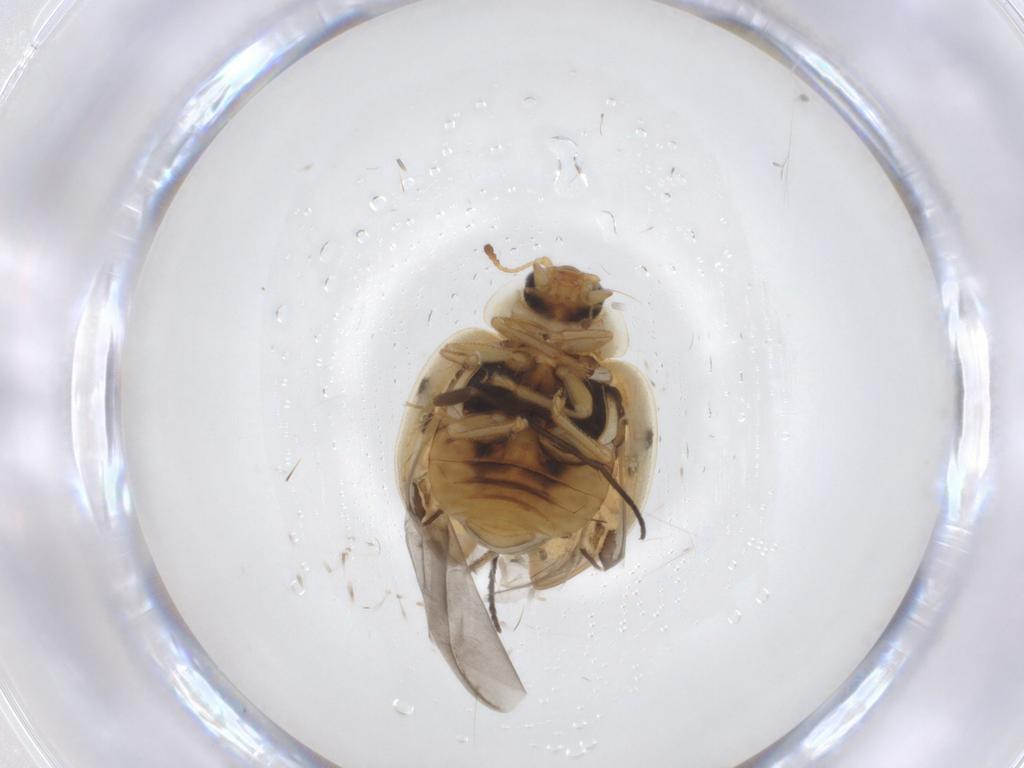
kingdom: Animalia
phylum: Arthropoda
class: Insecta
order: Coleoptera
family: Coccinellidae
